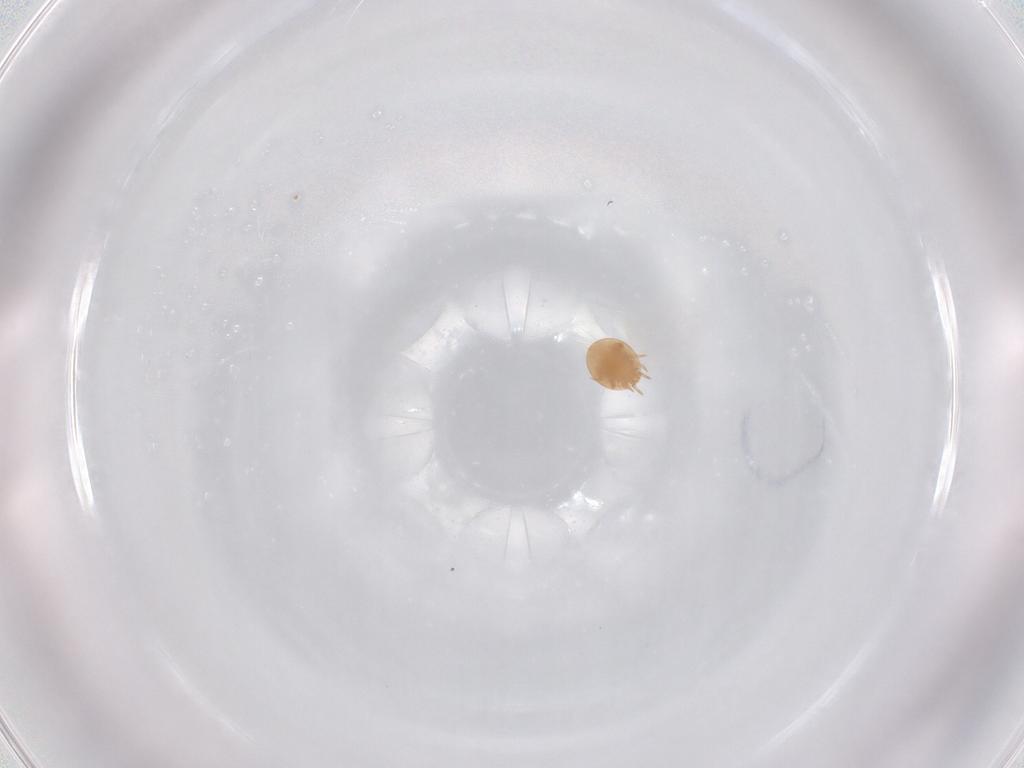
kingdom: Animalia
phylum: Arthropoda
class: Arachnida
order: Mesostigmata
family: Trematuridae
